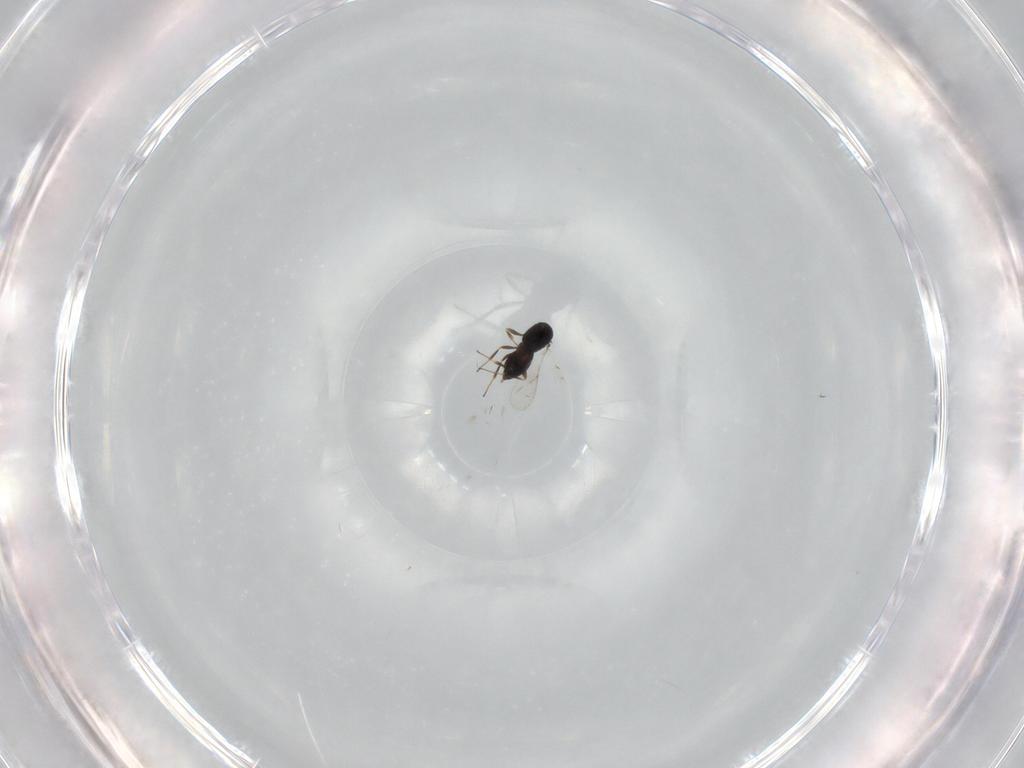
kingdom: Animalia
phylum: Arthropoda
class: Insecta
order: Hymenoptera
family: Scelionidae
